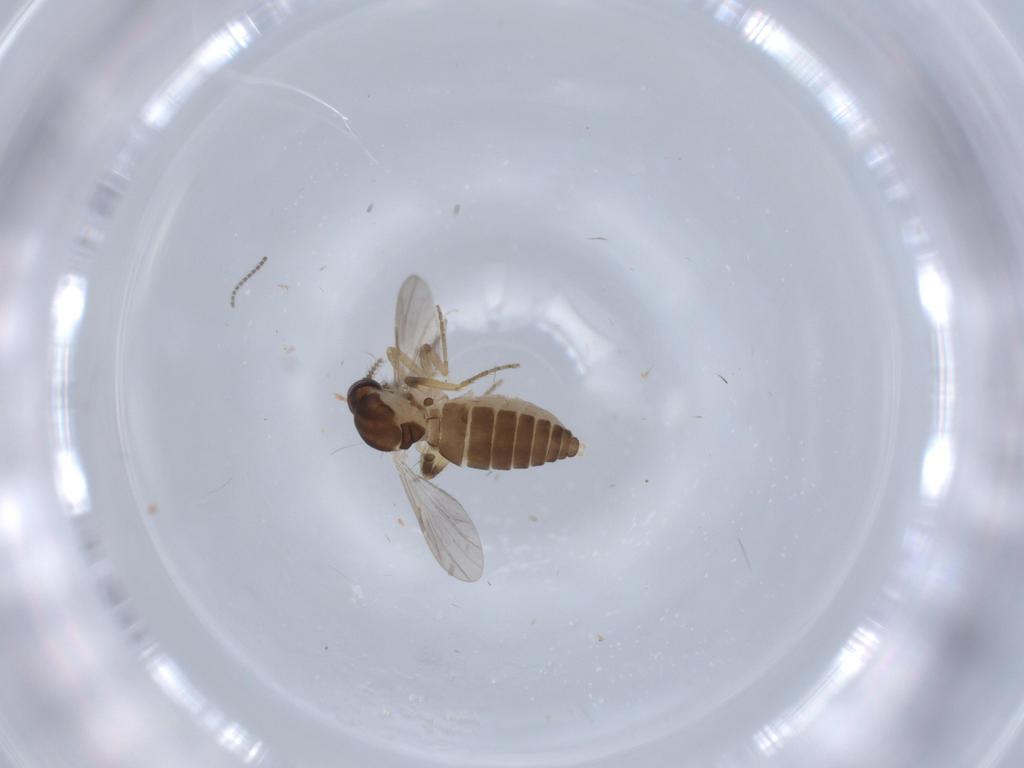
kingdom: Animalia
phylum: Arthropoda
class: Insecta
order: Diptera
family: Ceratopogonidae
